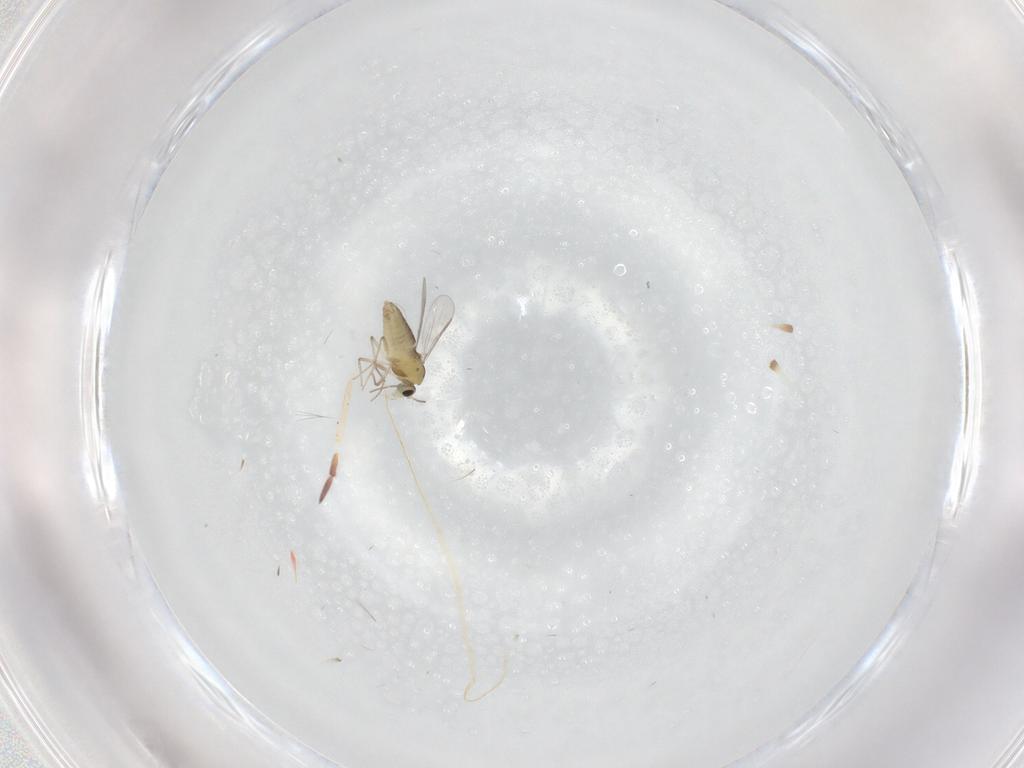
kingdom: Animalia
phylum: Arthropoda
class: Insecta
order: Diptera
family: Chironomidae
